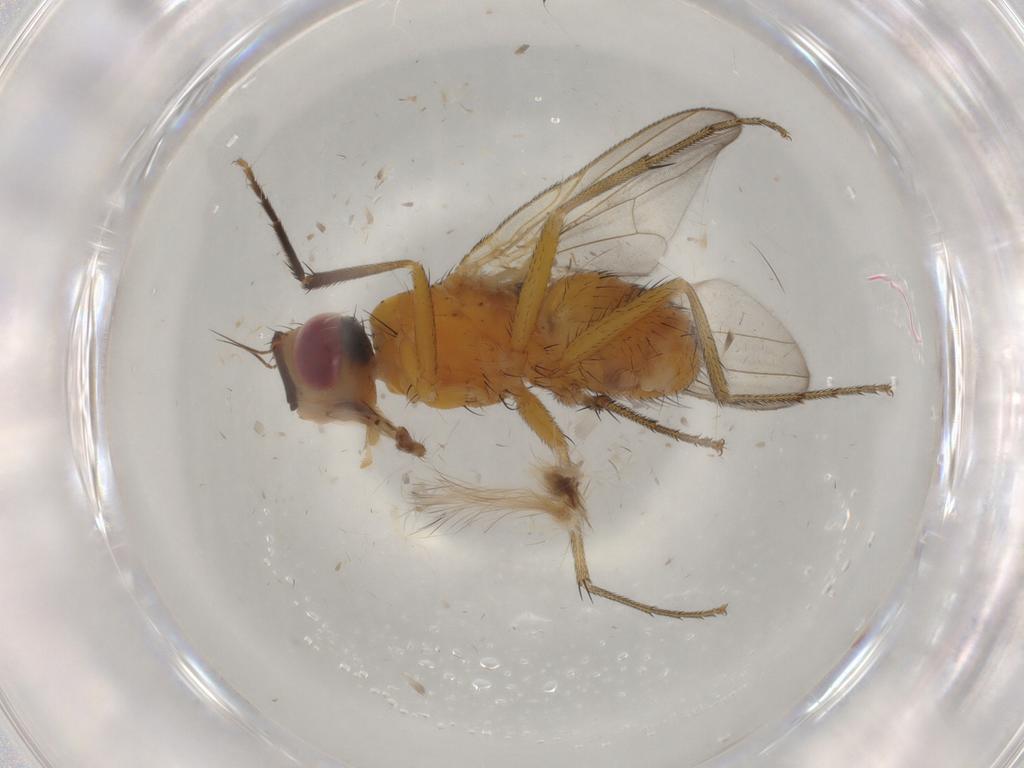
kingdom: Animalia
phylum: Arthropoda
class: Insecta
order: Diptera
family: Muscidae
